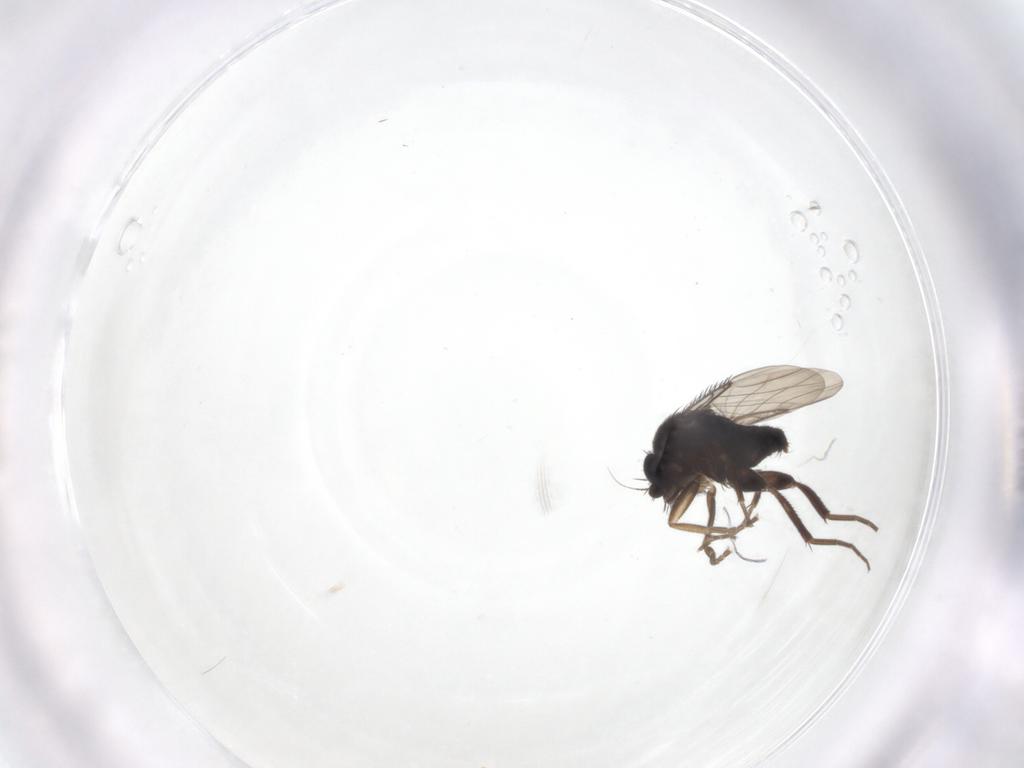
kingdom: Animalia
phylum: Arthropoda
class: Insecta
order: Diptera
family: Phoridae
